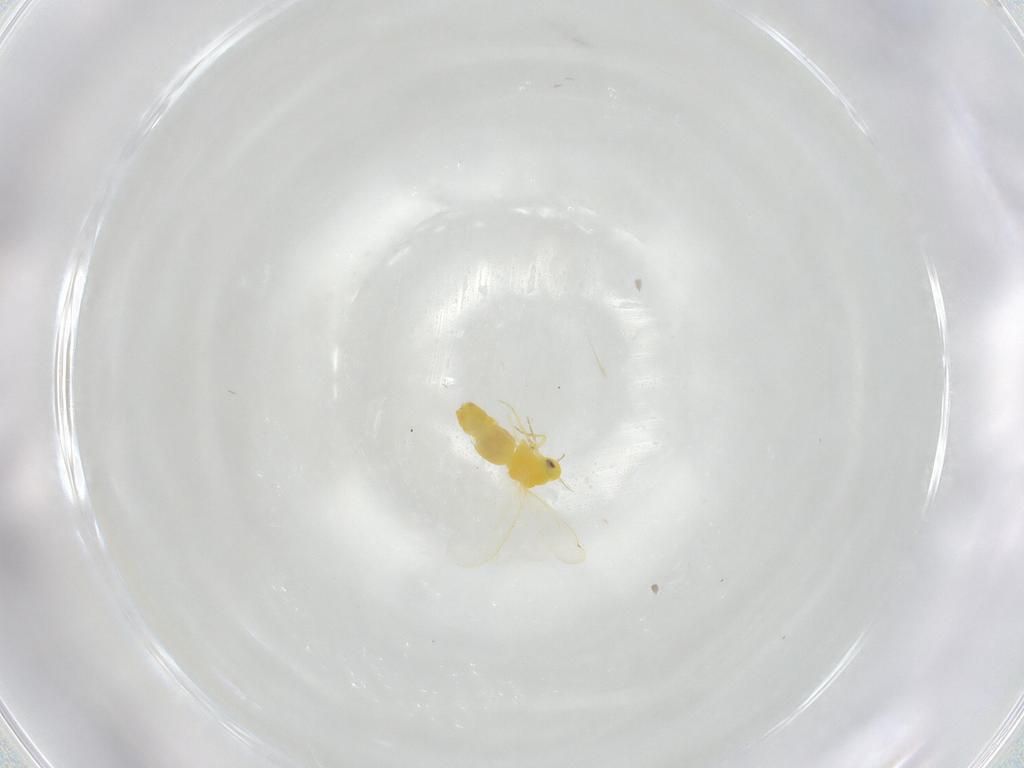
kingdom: Animalia
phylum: Arthropoda
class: Insecta
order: Hemiptera
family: Aleyrodidae
